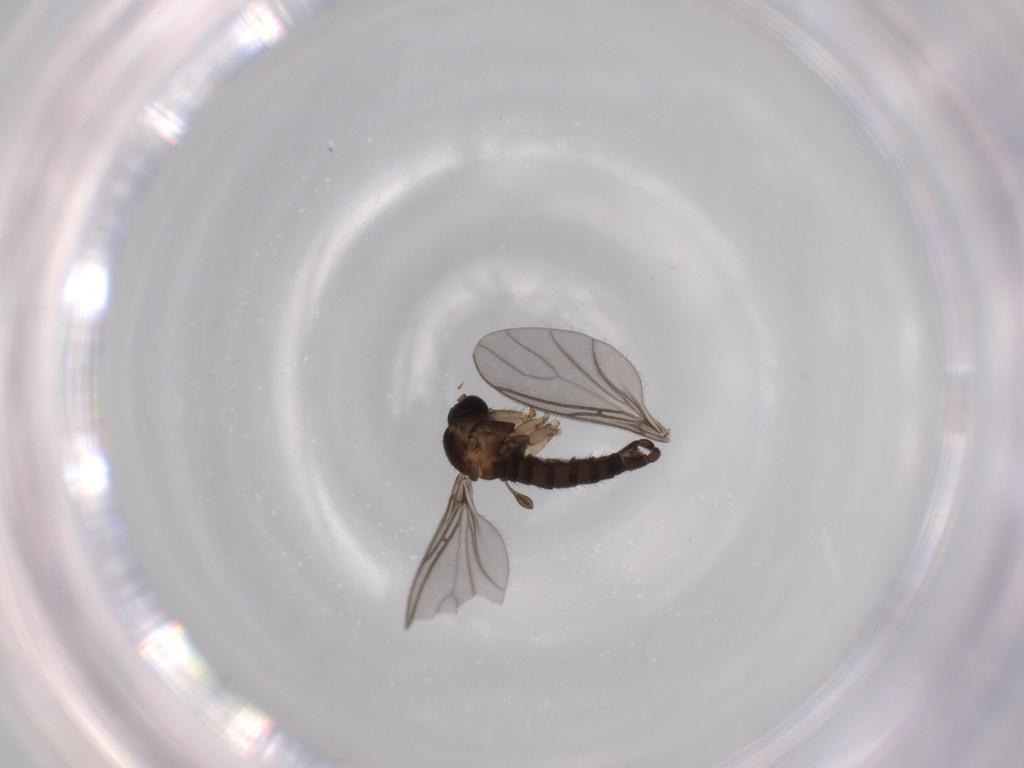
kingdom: Animalia
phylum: Arthropoda
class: Insecta
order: Diptera
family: Sciaridae
